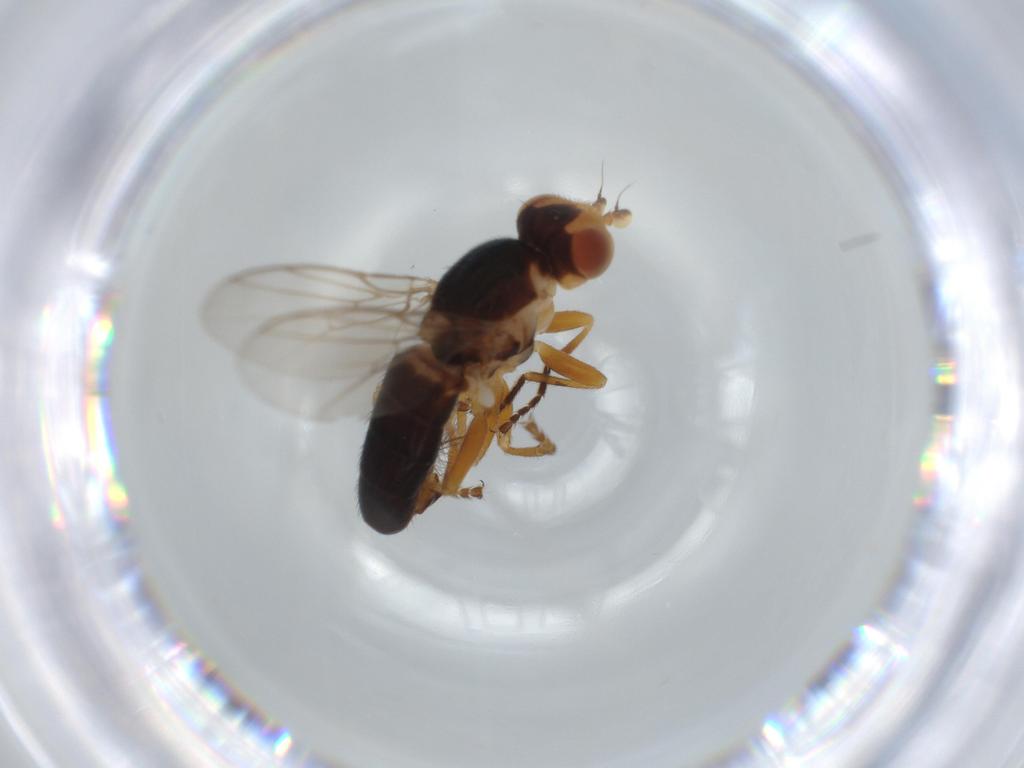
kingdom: Animalia
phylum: Arthropoda
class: Insecta
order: Diptera
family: Chloropidae
